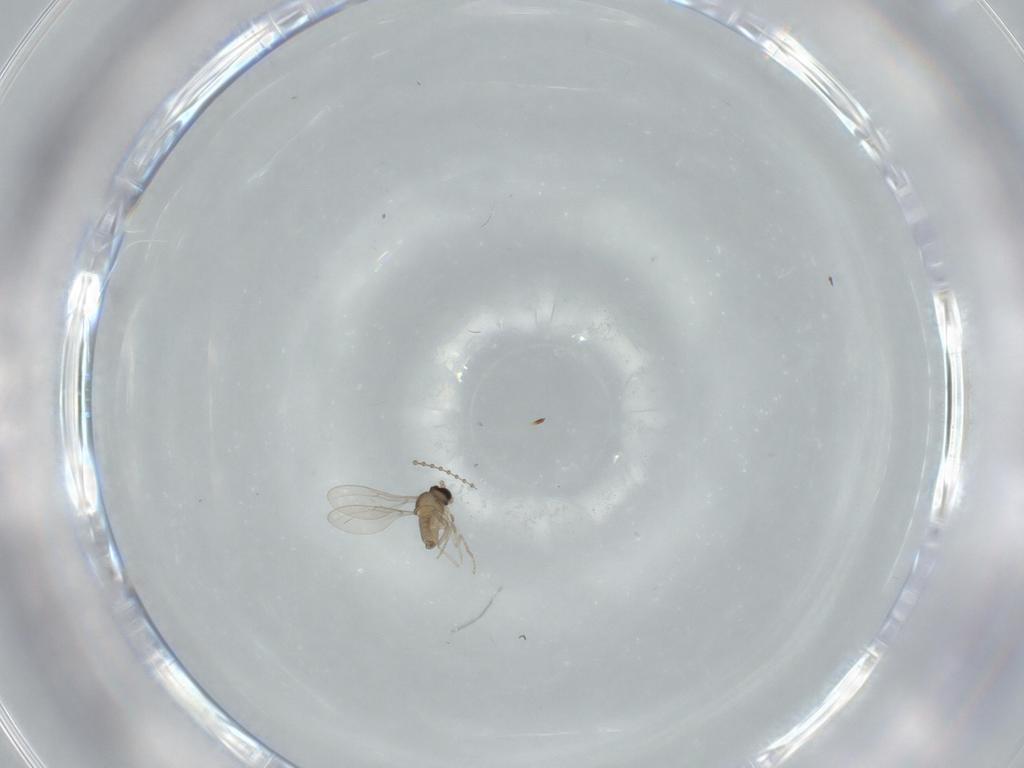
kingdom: Animalia
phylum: Arthropoda
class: Insecta
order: Diptera
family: Cecidomyiidae
